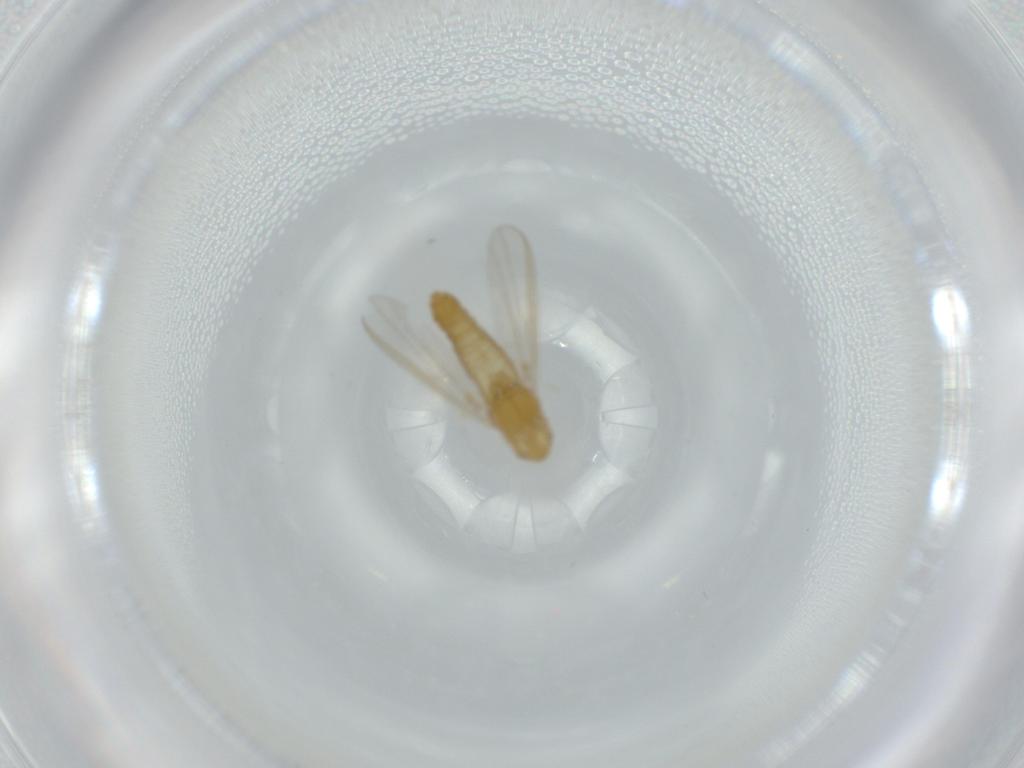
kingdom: Animalia
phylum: Arthropoda
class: Insecta
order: Diptera
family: Chironomidae
